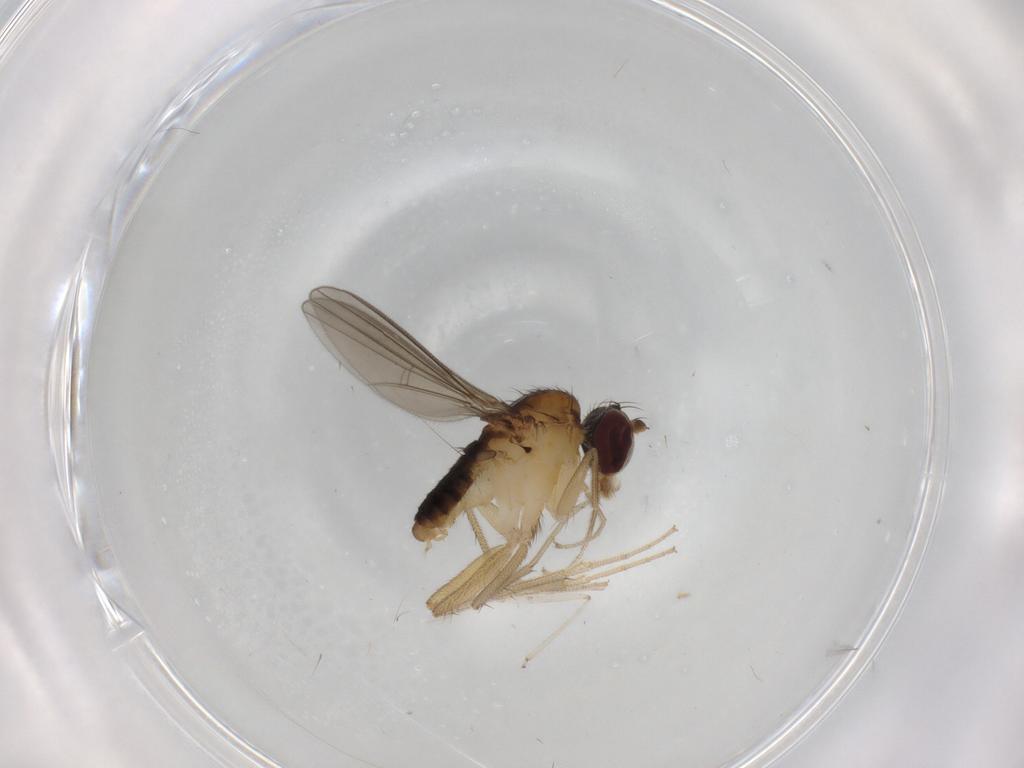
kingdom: Animalia
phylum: Arthropoda
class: Insecta
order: Diptera
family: Dolichopodidae
